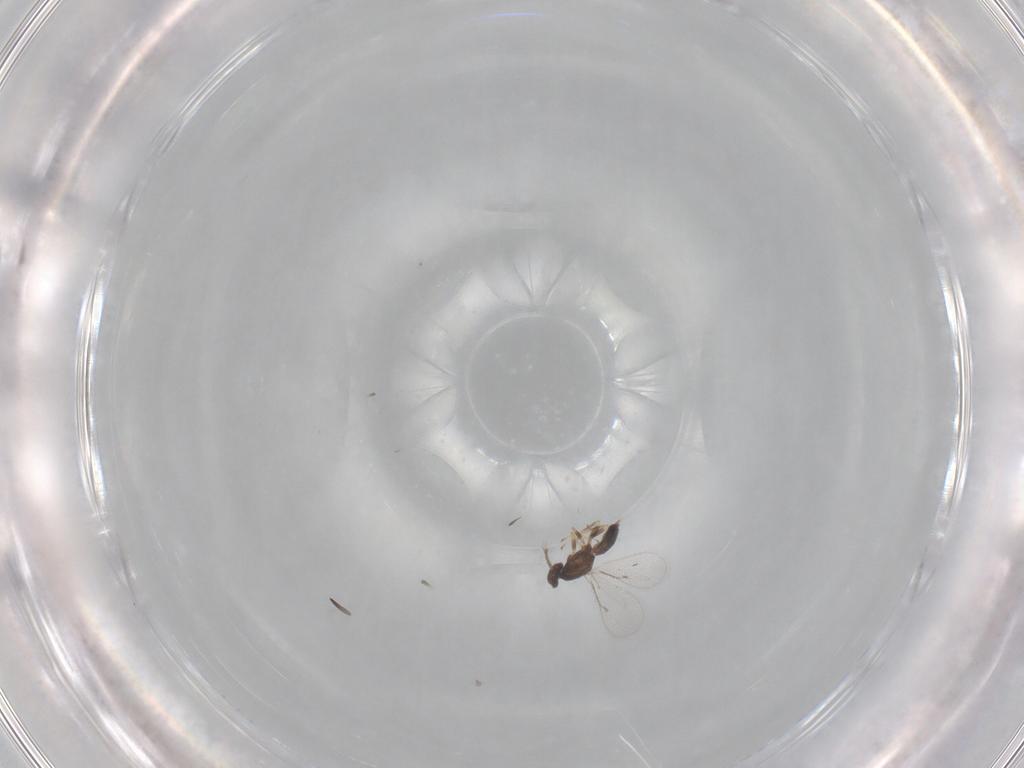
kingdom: Animalia
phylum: Arthropoda
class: Insecta
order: Hymenoptera
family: Eulophidae
